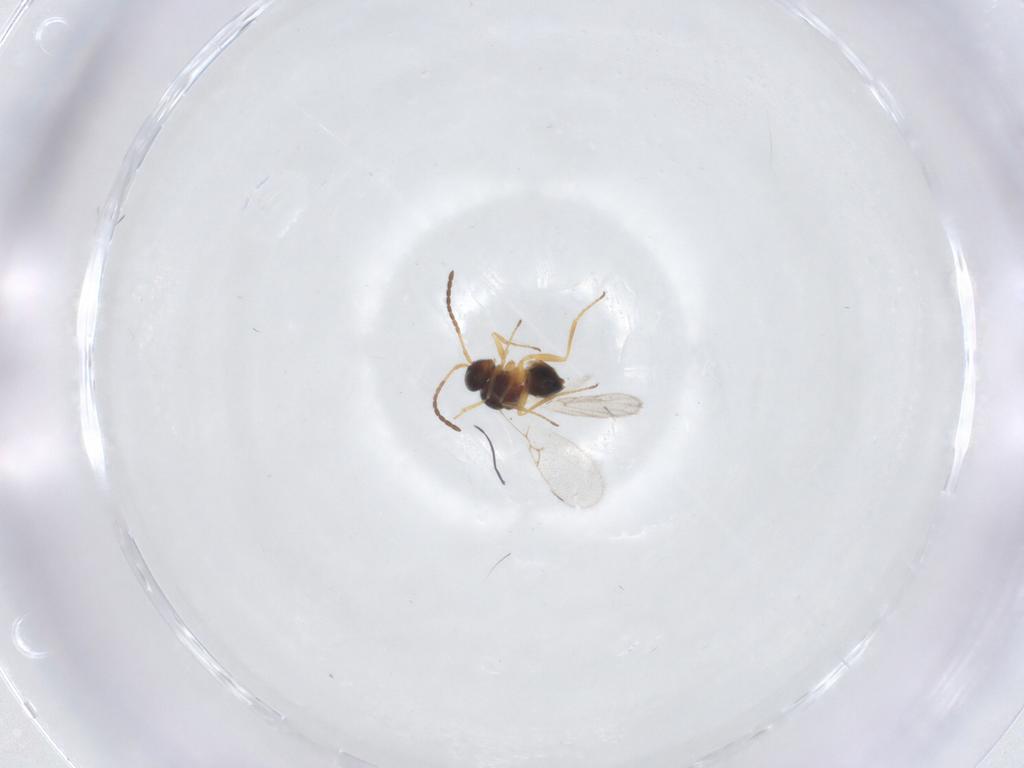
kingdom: Animalia
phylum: Arthropoda
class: Insecta
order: Hymenoptera
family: Figitidae
